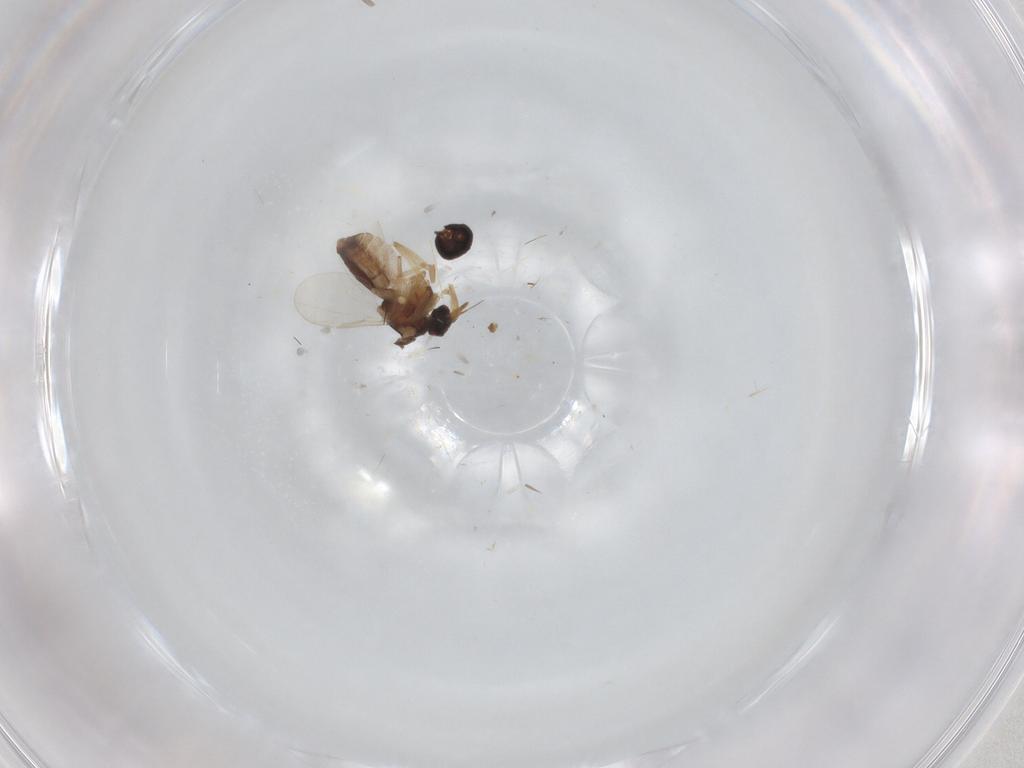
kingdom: Animalia
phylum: Arthropoda
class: Insecta
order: Diptera
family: Ceratopogonidae
